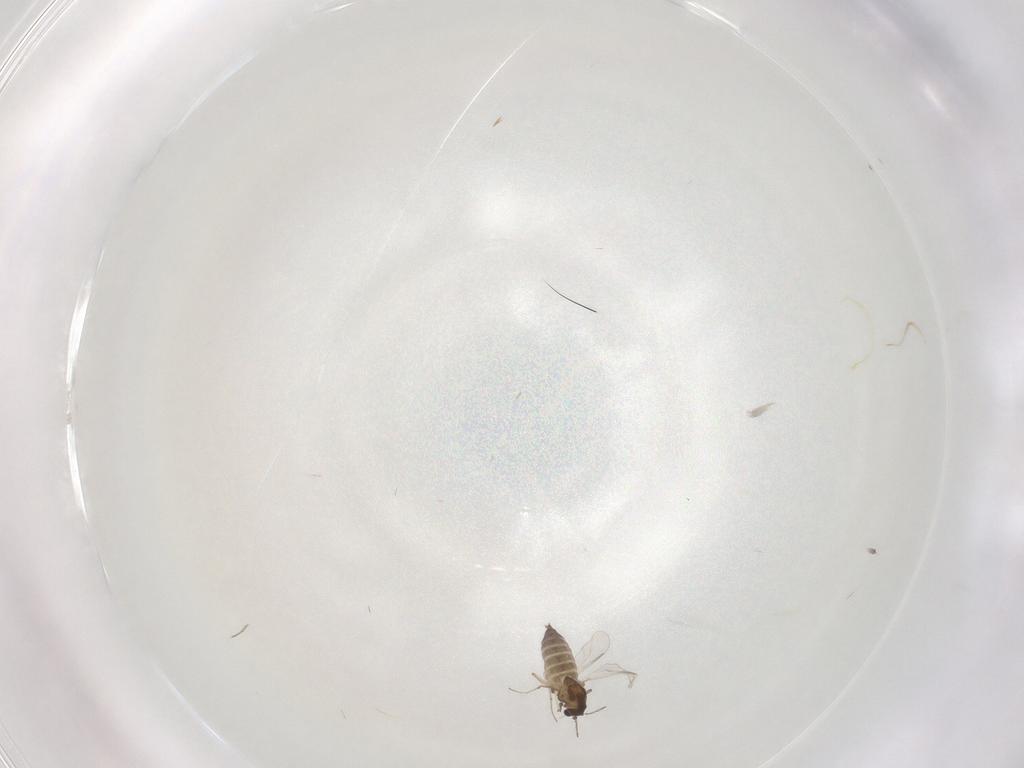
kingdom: Animalia
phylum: Arthropoda
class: Insecta
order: Diptera
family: Chironomidae
